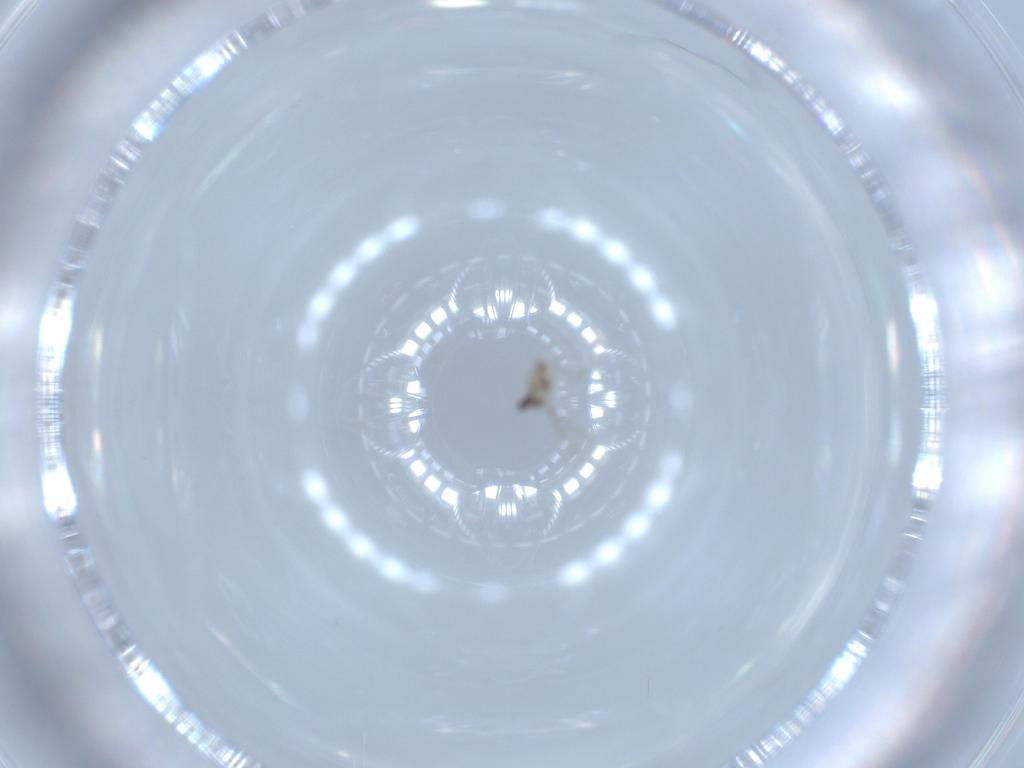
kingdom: Animalia
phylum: Arthropoda
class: Insecta
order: Diptera
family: Cecidomyiidae
